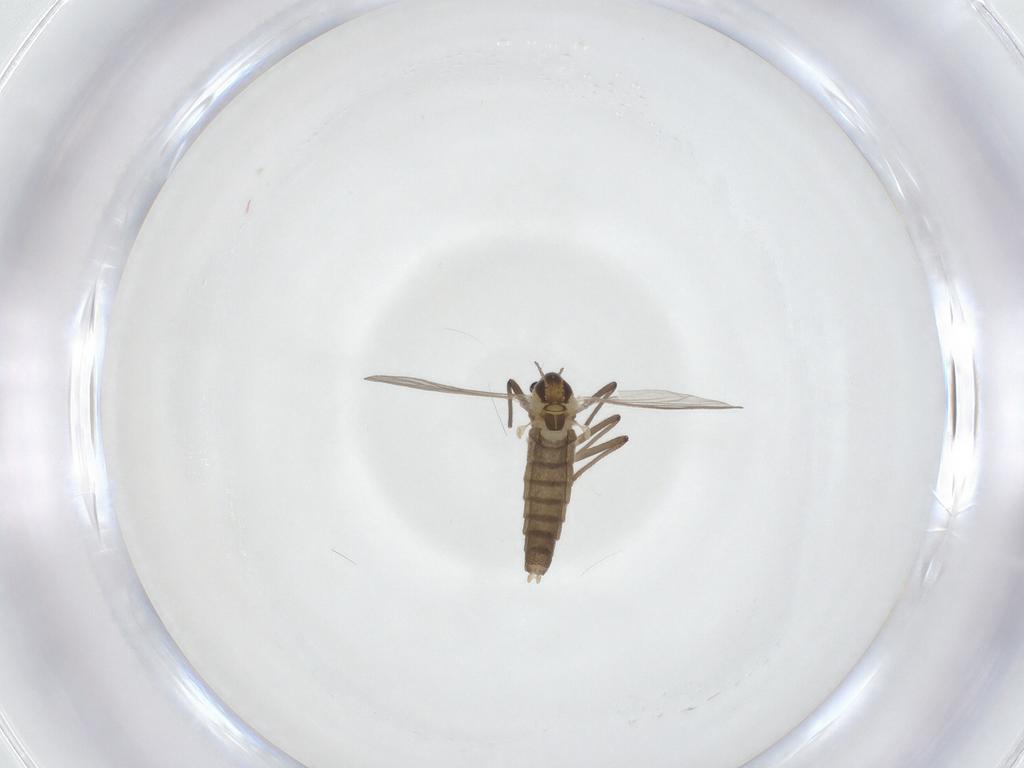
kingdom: Animalia
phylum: Arthropoda
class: Insecta
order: Diptera
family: Chironomidae
